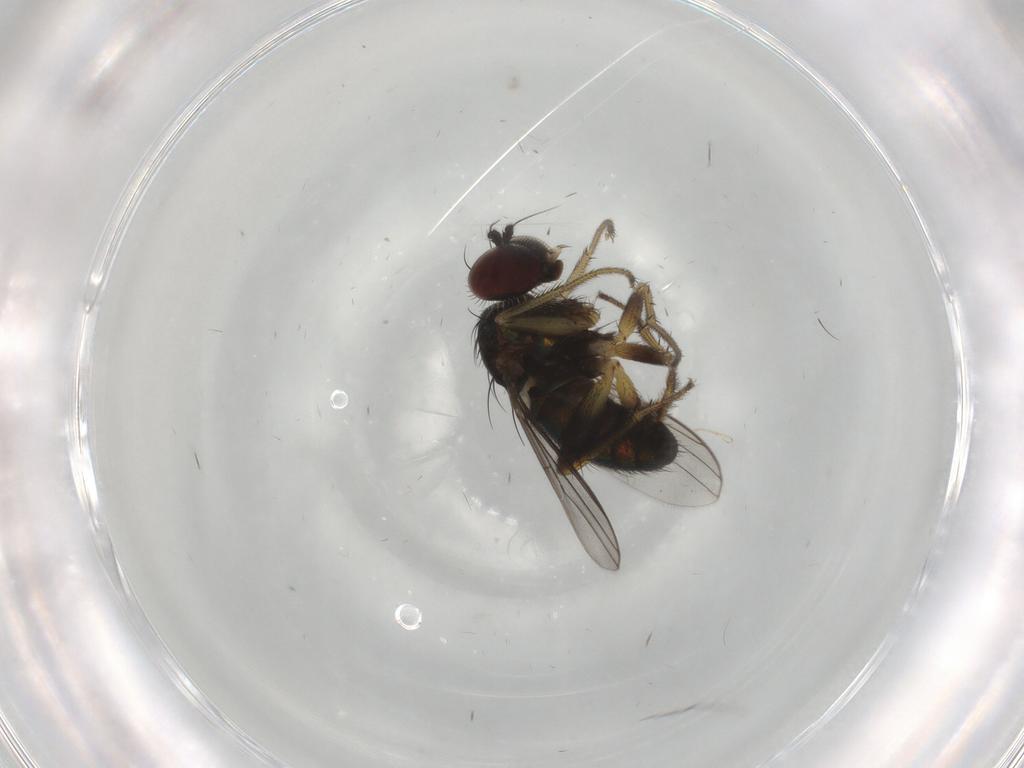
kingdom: Animalia
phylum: Arthropoda
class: Insecta
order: Diptera
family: Dolichopodidae
